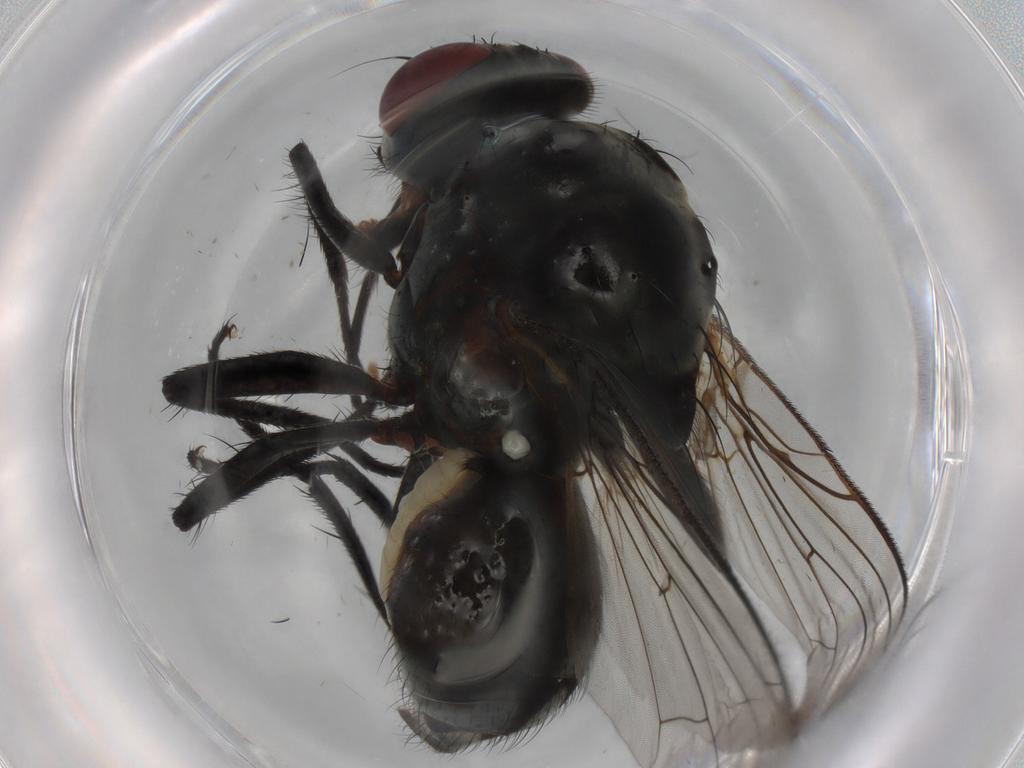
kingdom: Animalia
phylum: Arthropoda
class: Insecta
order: Diptera
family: Anthomyiidae
